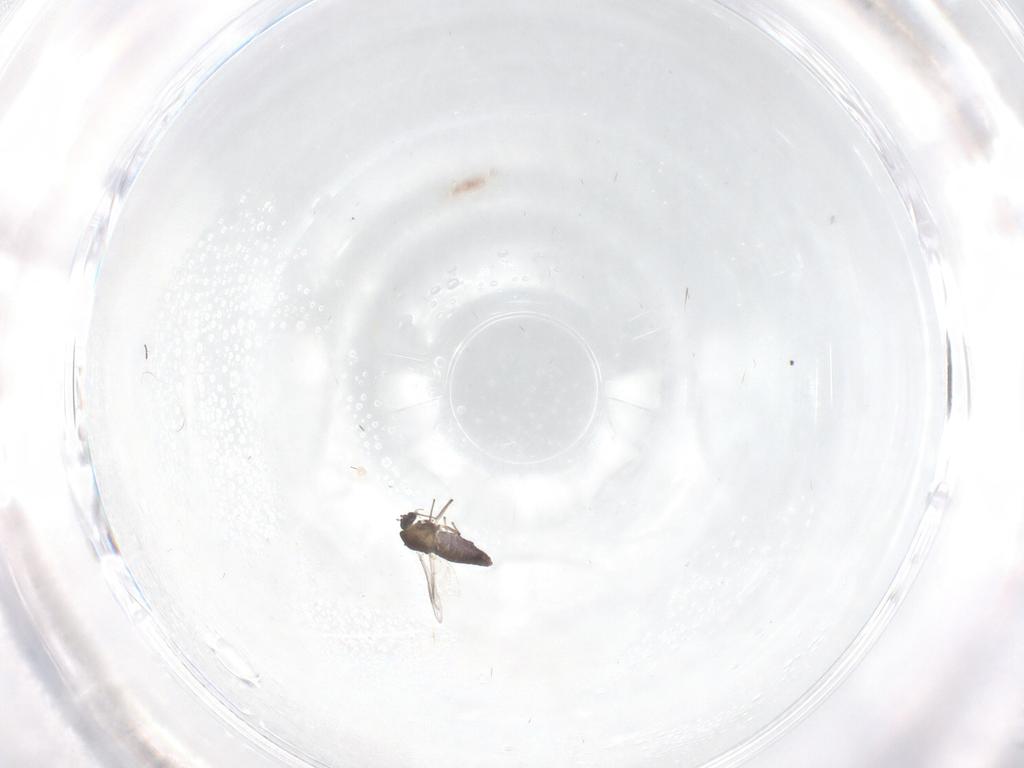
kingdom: Animalia
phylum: Arthropoda
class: Insecta
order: Diptera
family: Chironomidae
